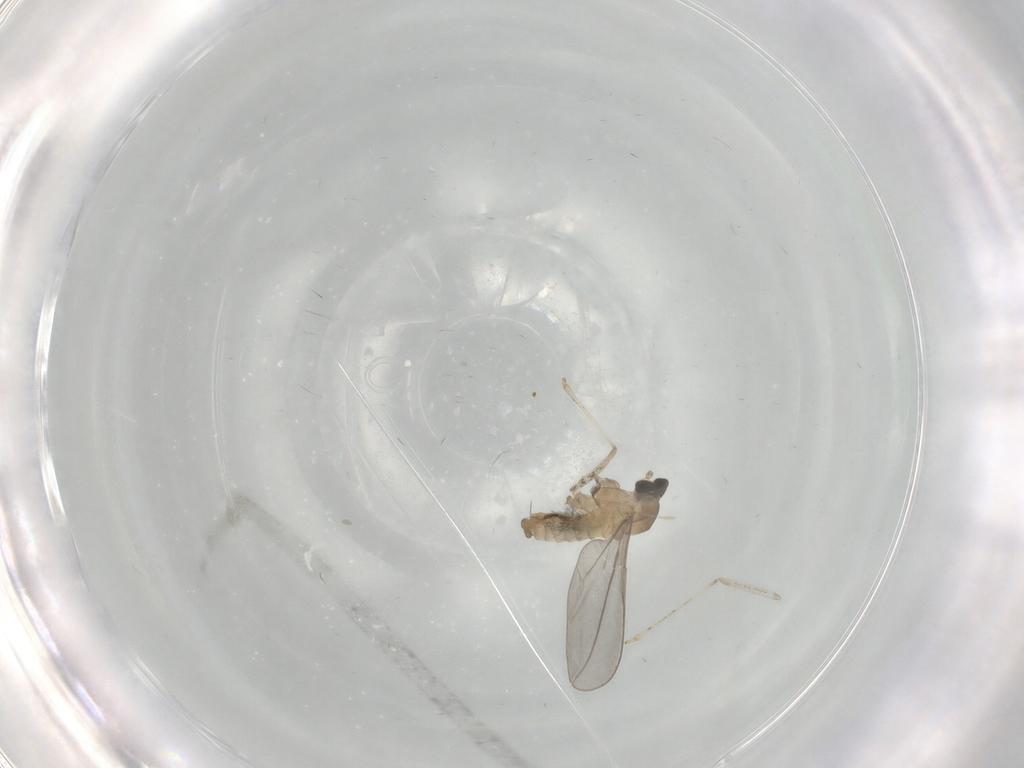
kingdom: Animalia
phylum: Arthropoda
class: Insecta
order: Diptera
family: Cecidomyiidae
